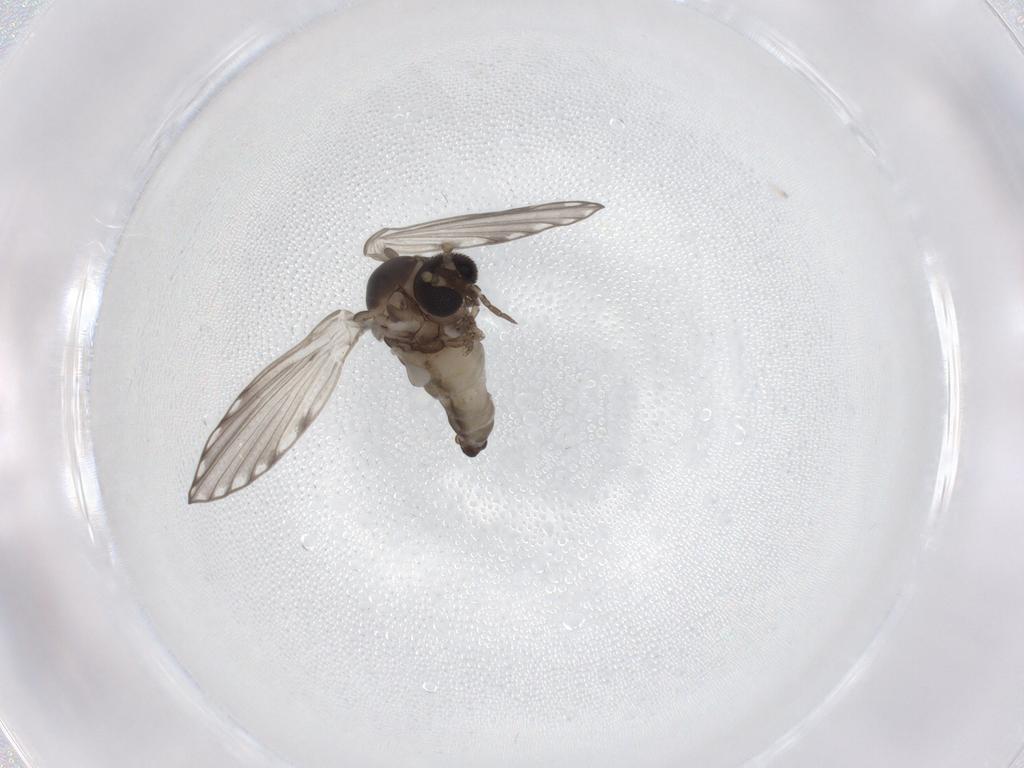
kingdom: Animalia
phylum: Arthropoda
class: Insecta
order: Diptera
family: Psychodidae
